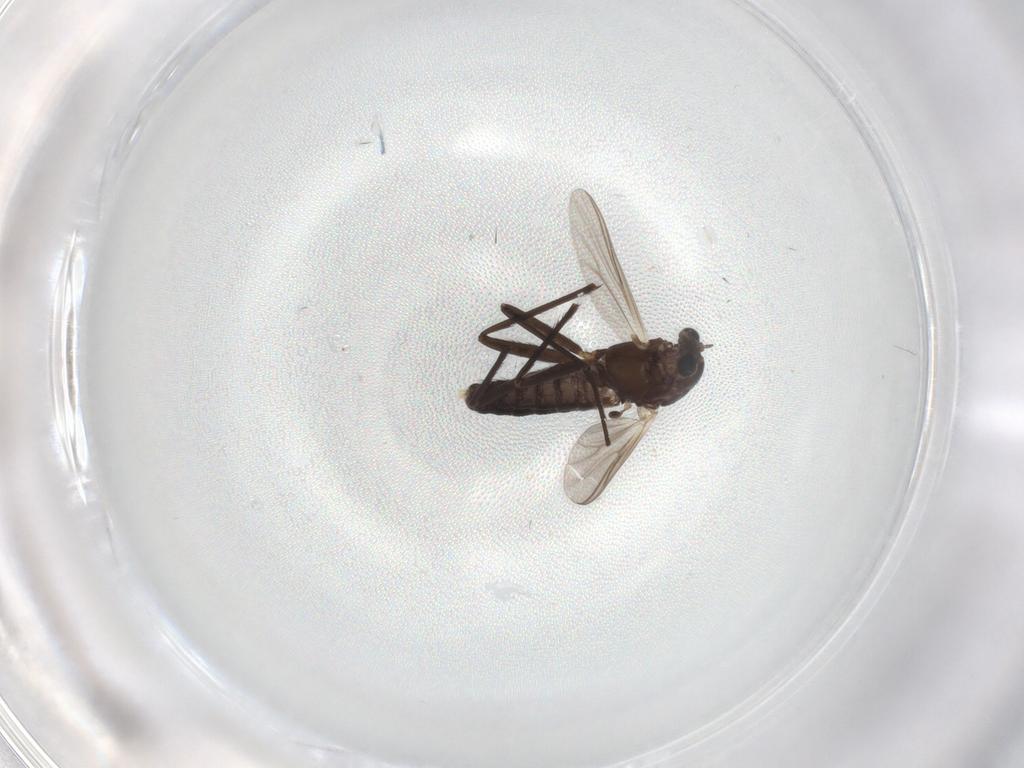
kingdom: Animalia
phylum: Arthropoda
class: Insecta
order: Diptera
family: Chironomidae
